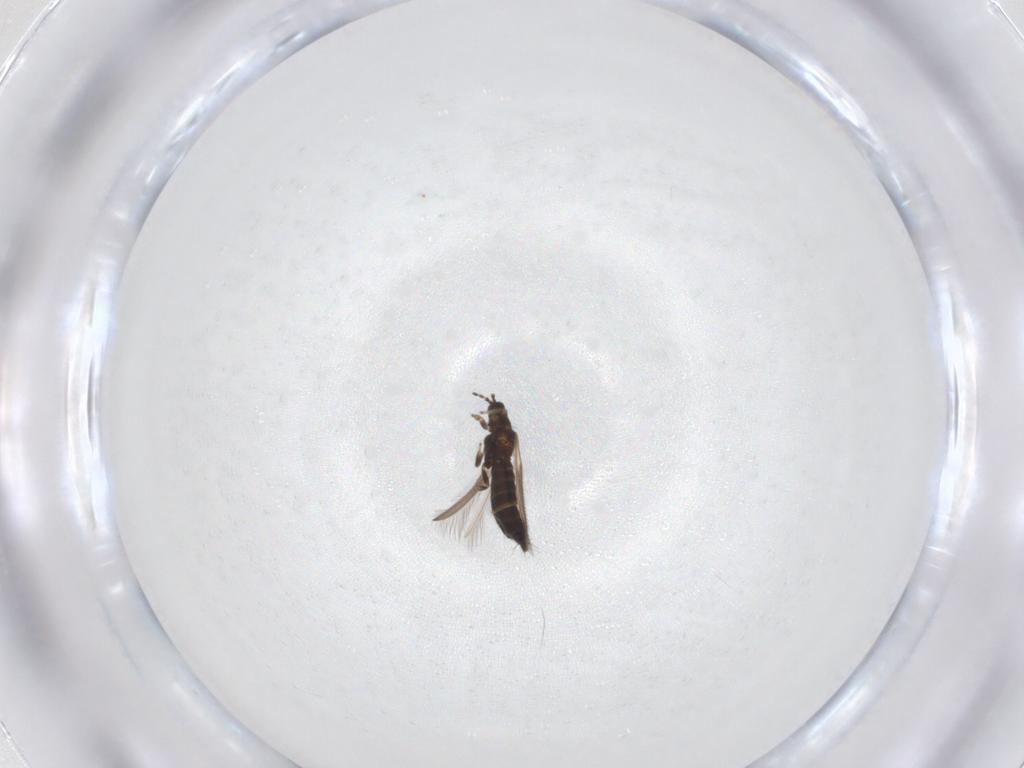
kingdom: Animalia
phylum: Arthropoda
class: Insecta
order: Thysanoptera
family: Thripidae
